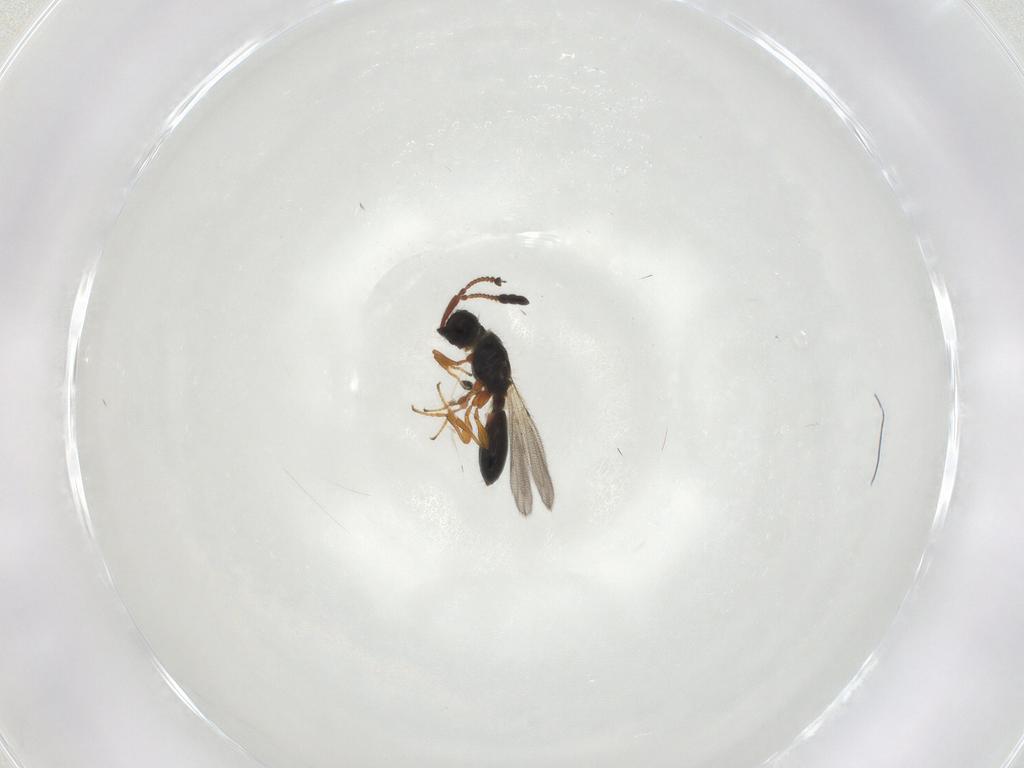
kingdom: Animalia
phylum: Arthropoda
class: Insecta
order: Hymenoptera
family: Diapriidae
